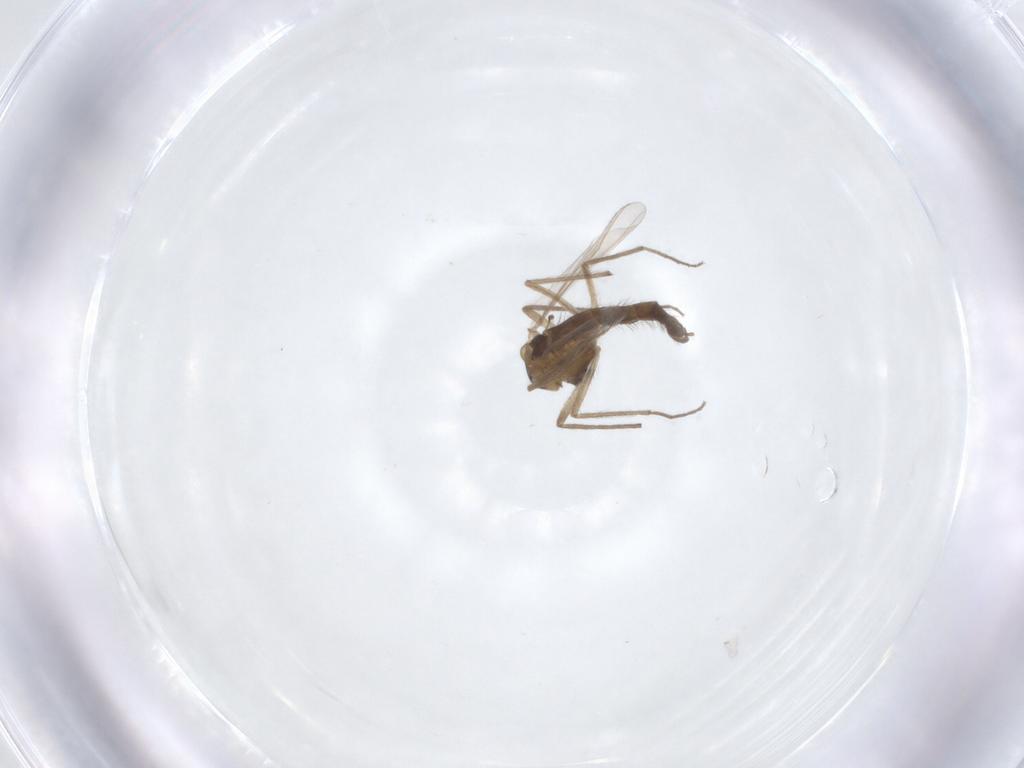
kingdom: Animalia
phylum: Arthropoda
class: Insecta
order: Diptera
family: Chironomidae
